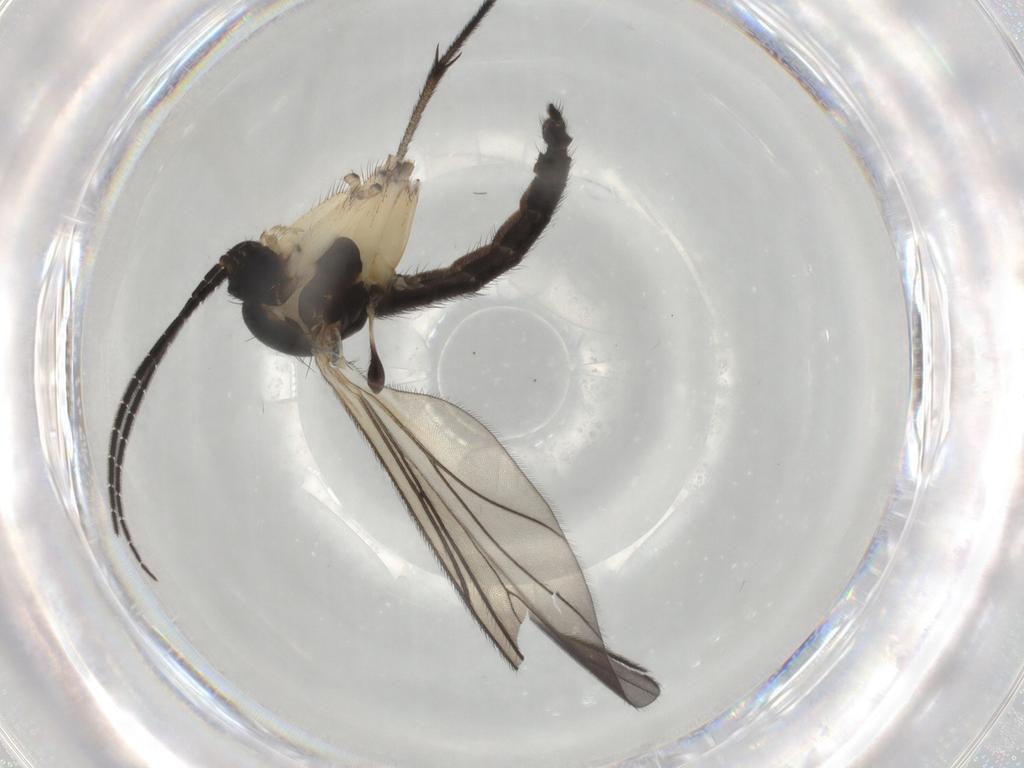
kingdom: Animalia
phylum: Arthropoda
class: Insecta
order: Diptera
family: Sciaridae
